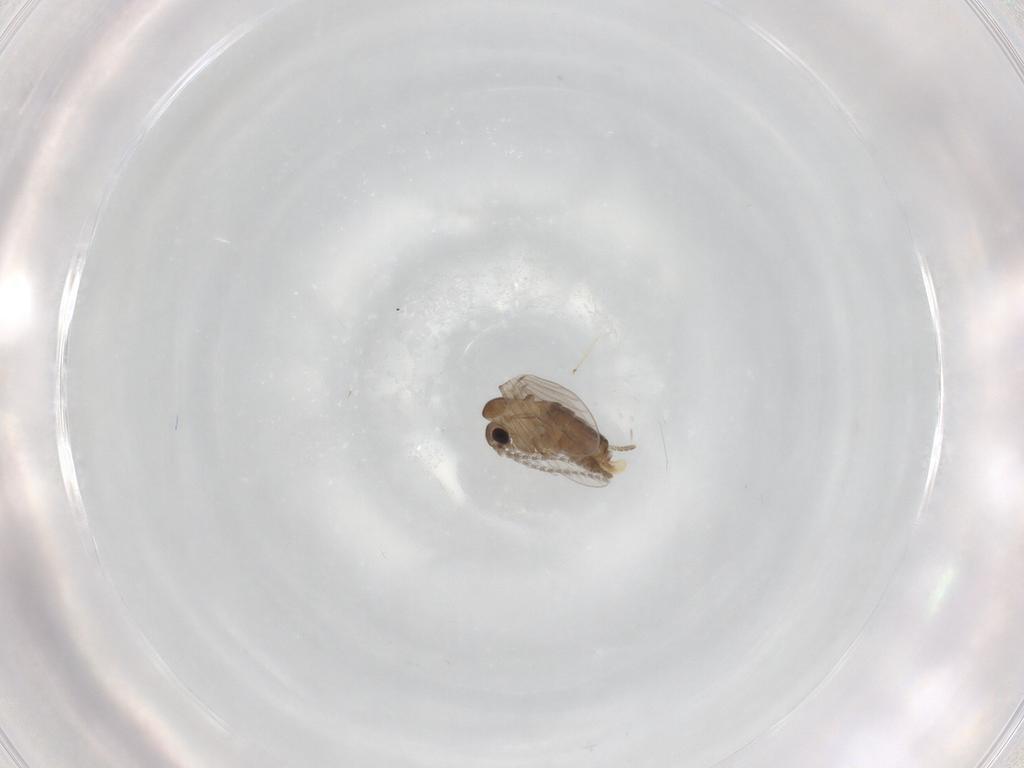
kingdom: Animalia
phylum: Arthropoda
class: Insecta
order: Diptera
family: Psychodidae
